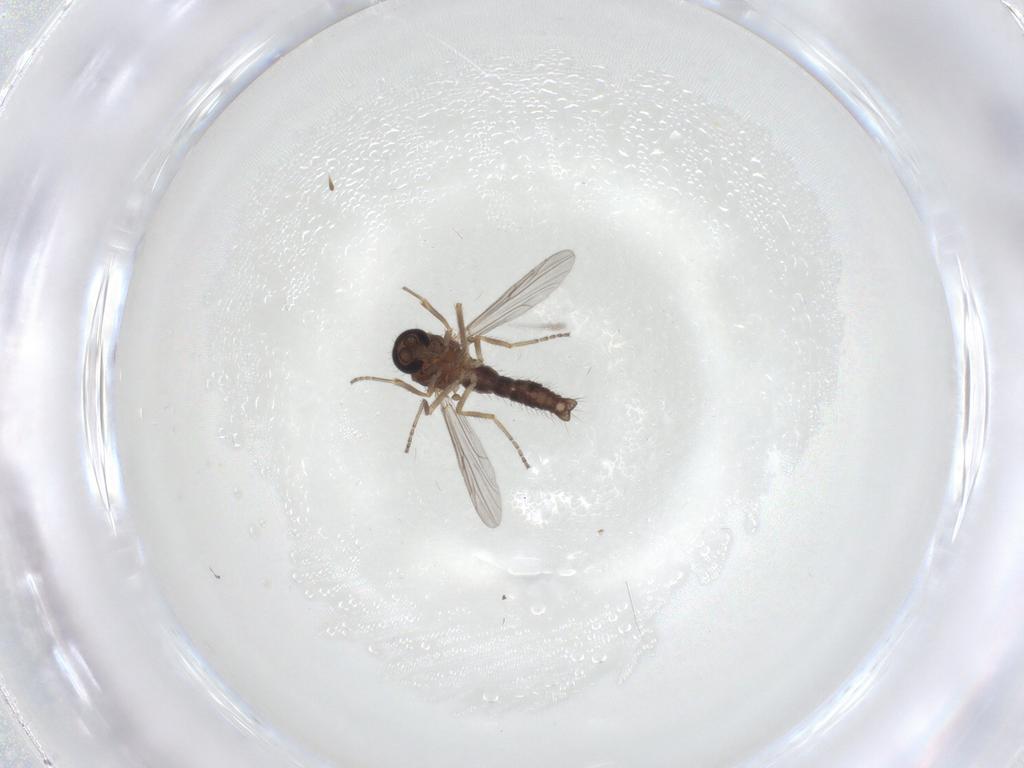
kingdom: Animalia
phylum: Arthropoda
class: Insecta
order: Diptera
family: Ceratopogonidae
